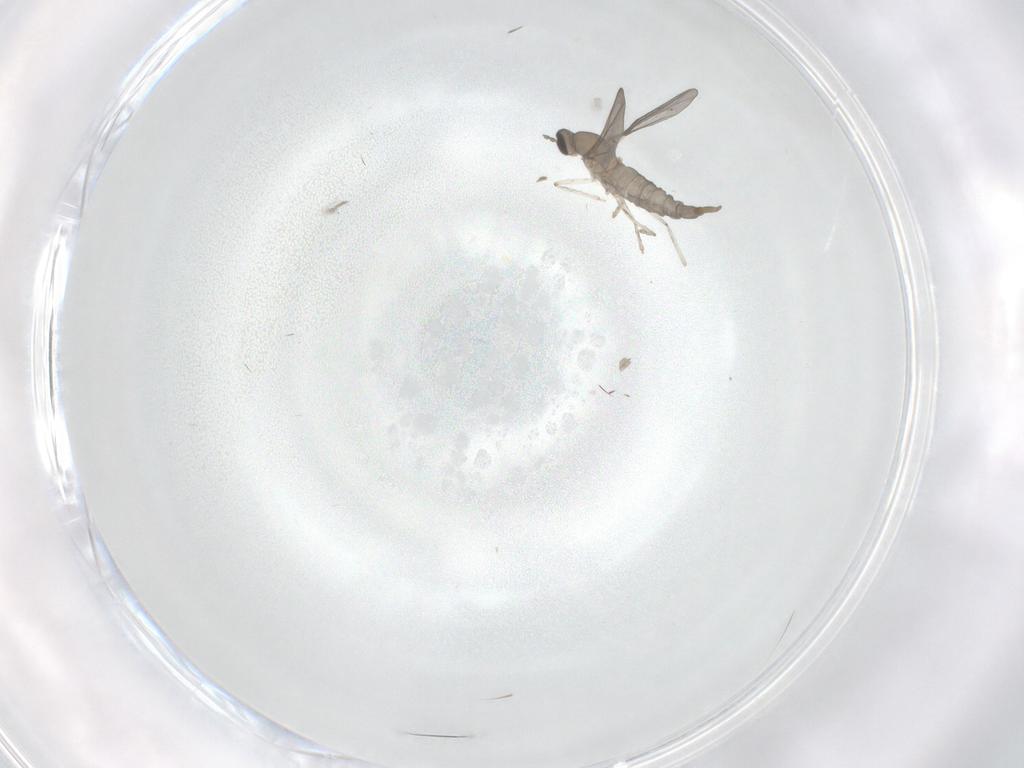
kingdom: Animalia
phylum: Arthropoda
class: Insecta
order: Diptera
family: Cecidomyiidae
